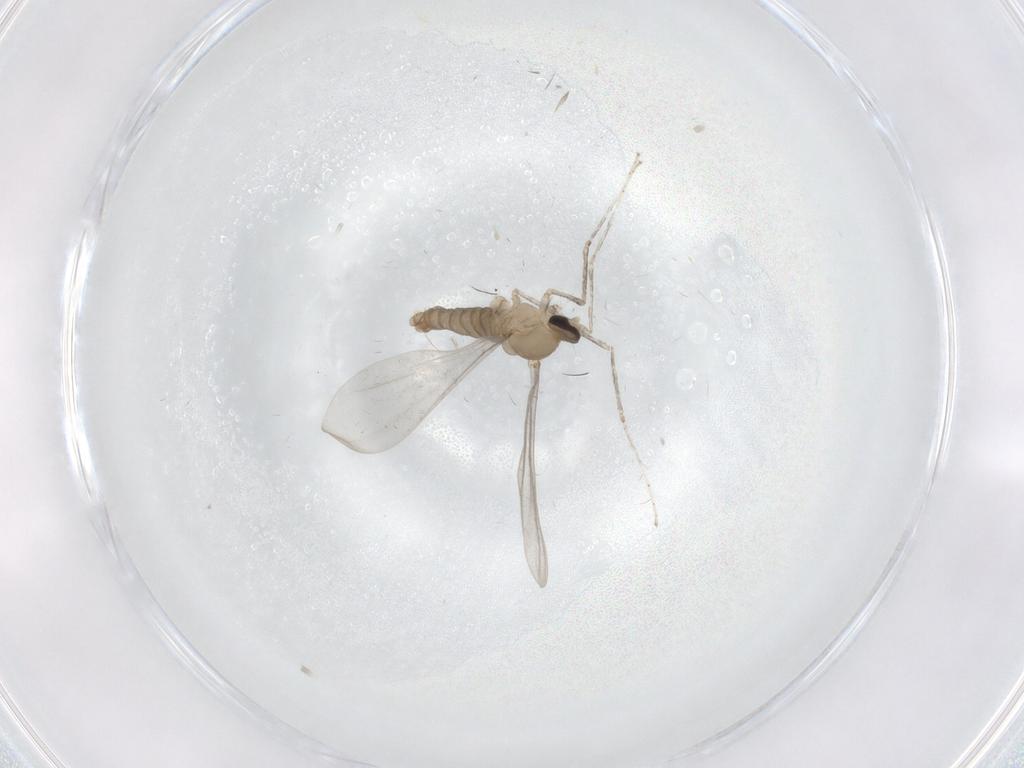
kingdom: Animalia
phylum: Arthropoda
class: Insecta
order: Diptera
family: Cecidomyiidae
